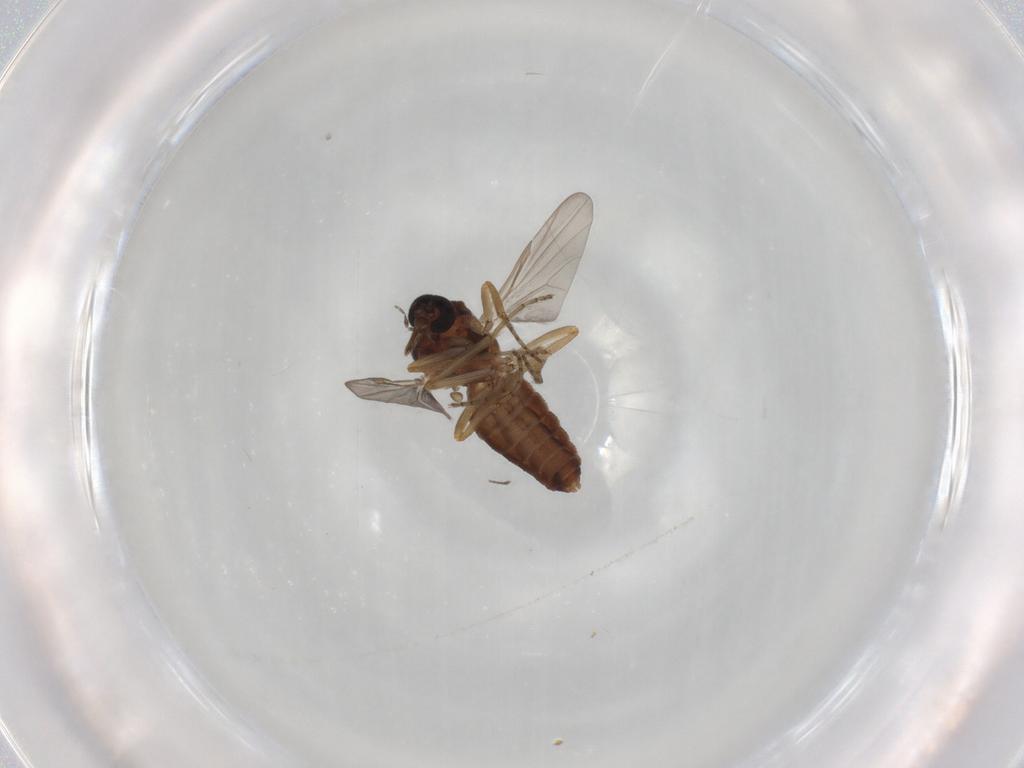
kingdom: Animalia
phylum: Arthropoda
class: Insecta
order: Diptera
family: Ceratopogonidae
